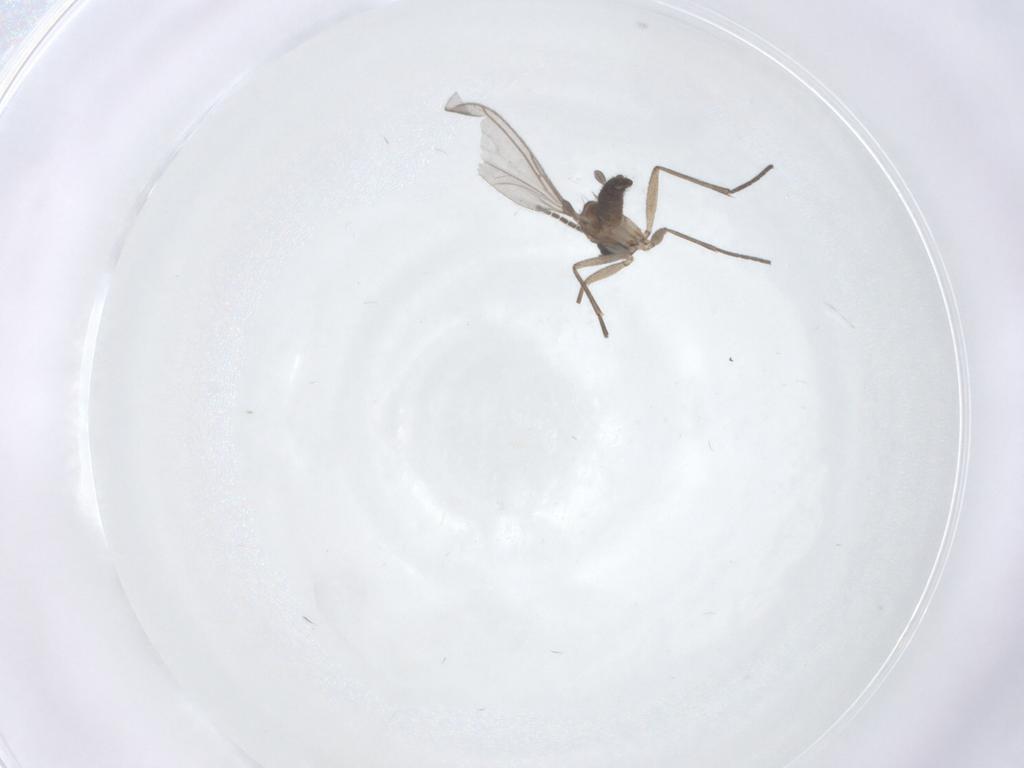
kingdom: Animalia
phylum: Arthropoda
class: Insecta
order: Diptera
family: Sciaridae
